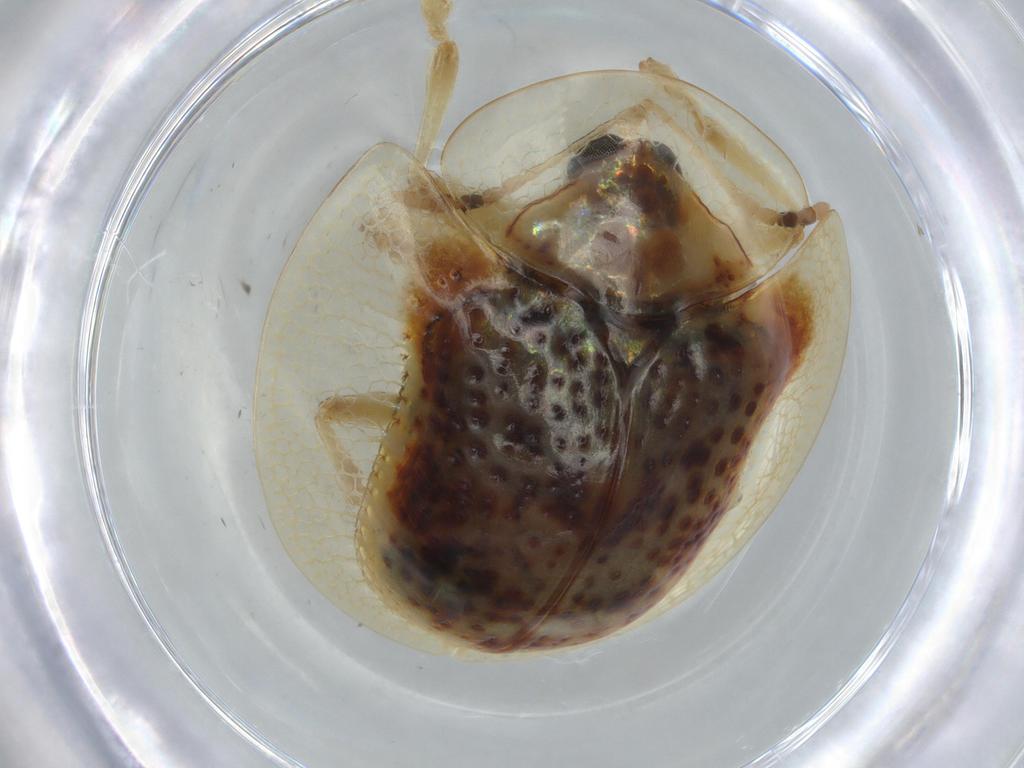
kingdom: Animalia
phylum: Arthropoda
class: Insecta
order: Coleoptera
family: Chrysomelidae
